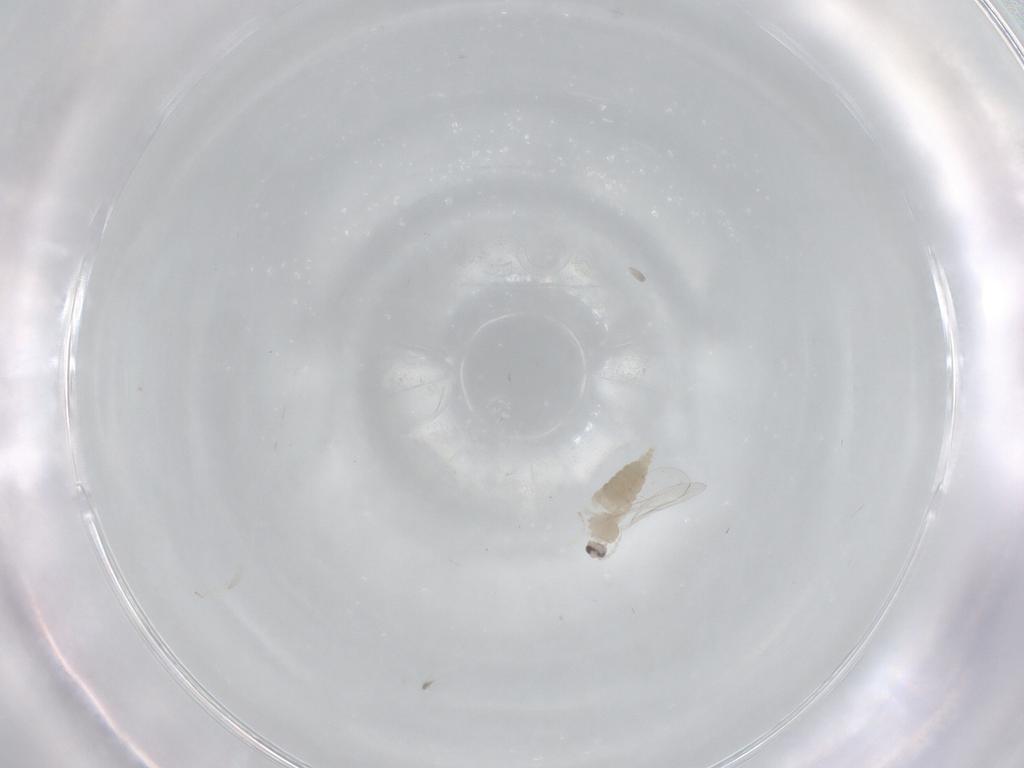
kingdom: Animalia
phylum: Arthropoda
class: Insecta
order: Diptera
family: Cecidomyiidae
